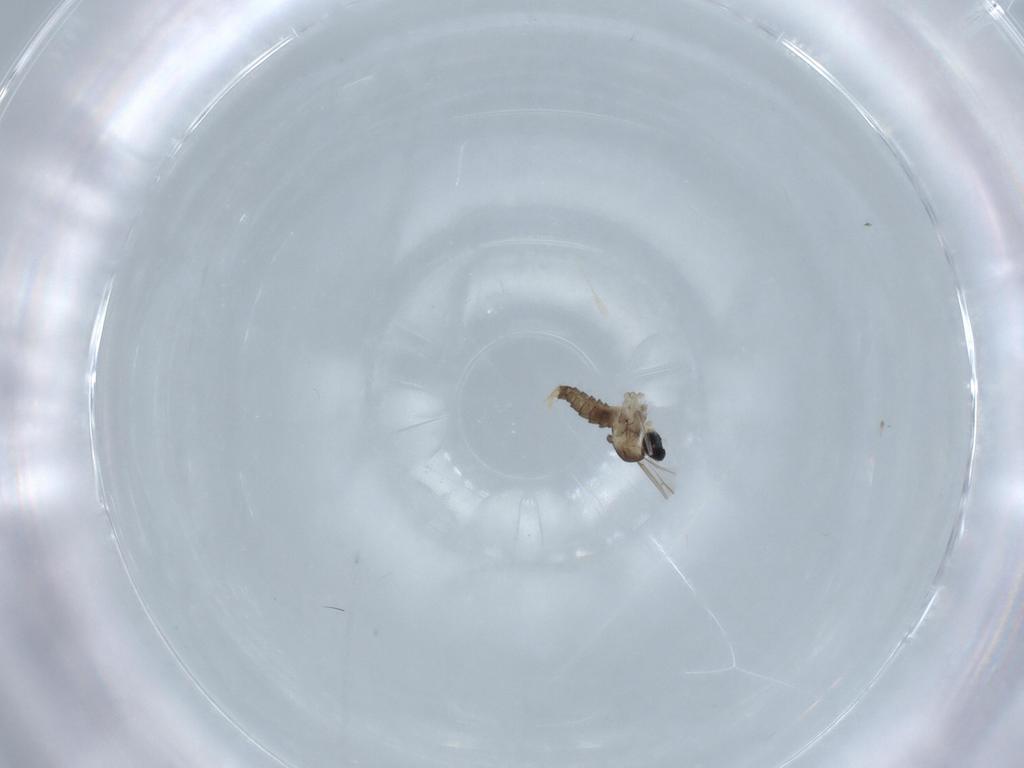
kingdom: Animalia
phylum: Arthropoda
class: Insecta
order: Diptera
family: Cecidomyiidae
